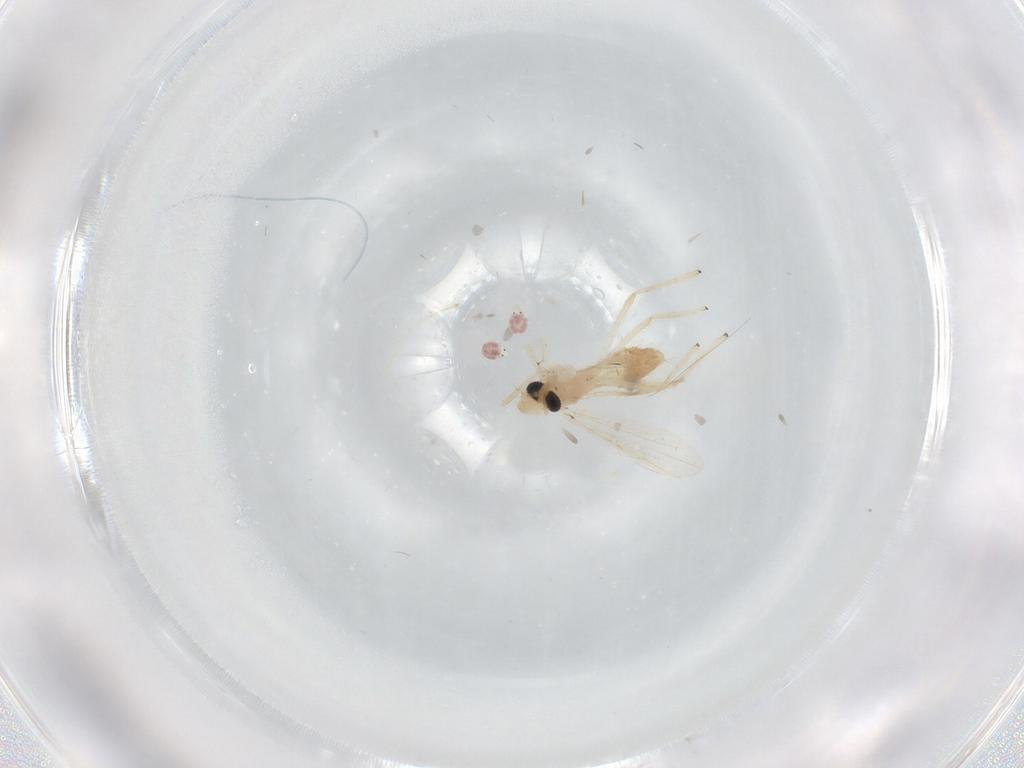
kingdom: Animalia
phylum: Arthropoda
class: Insecta
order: Diptera
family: Chironomidae
